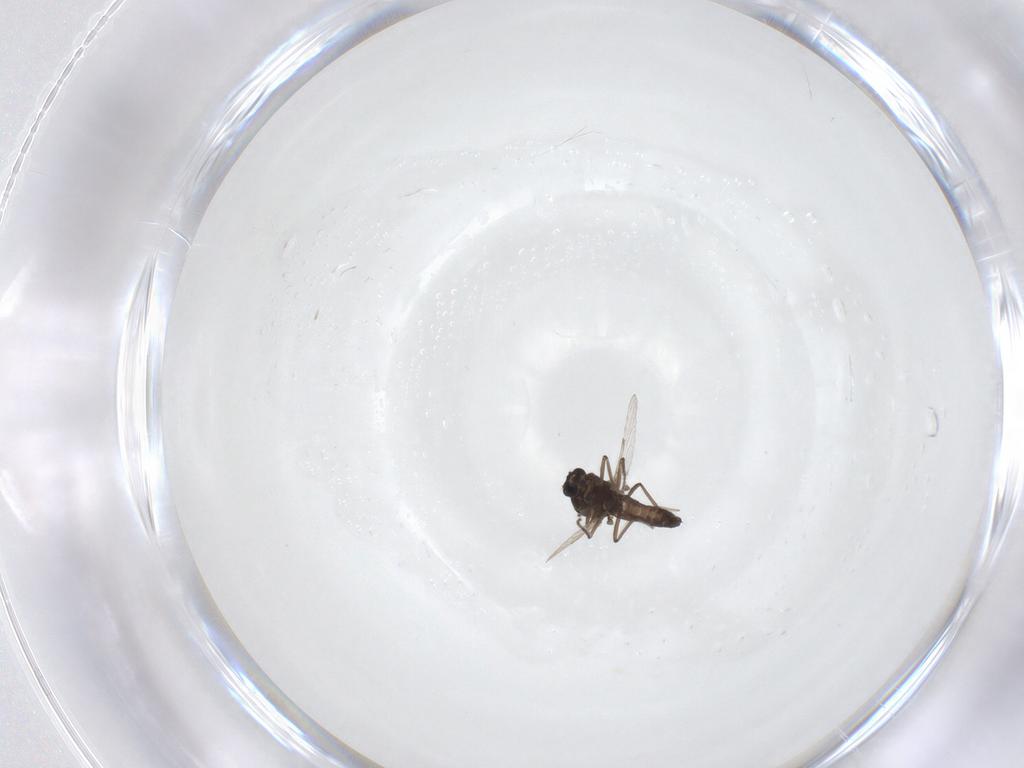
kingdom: Animalia
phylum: Arthropoda
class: Insecta
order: Diptera
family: Ceratopogonidae
